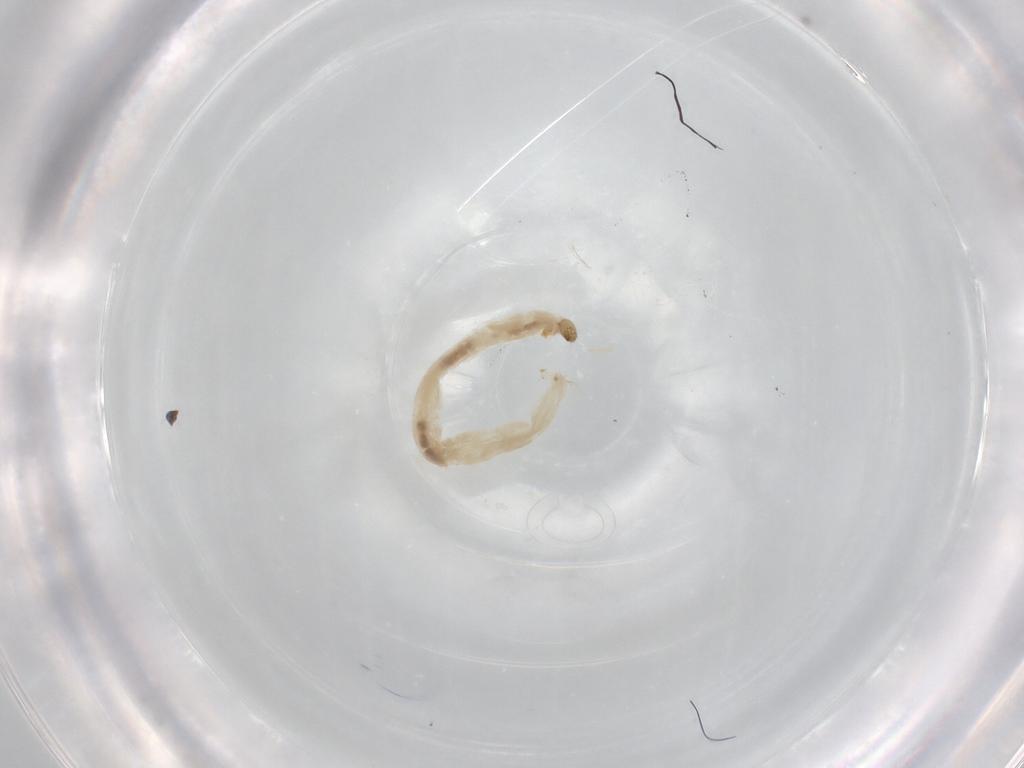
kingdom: Animalia
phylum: Arthropoda
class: Insecta
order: Diptera
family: Chironomidae
